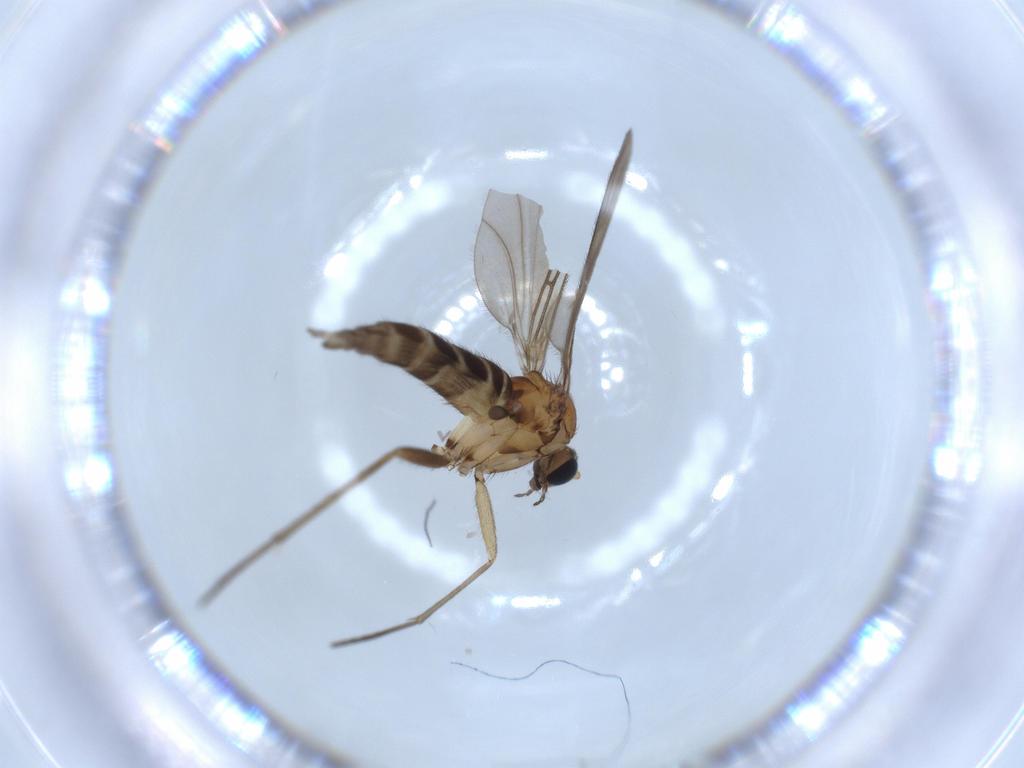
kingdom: Animalia
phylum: Arthropoda
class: Insecta
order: Diptera
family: Sciaridae
